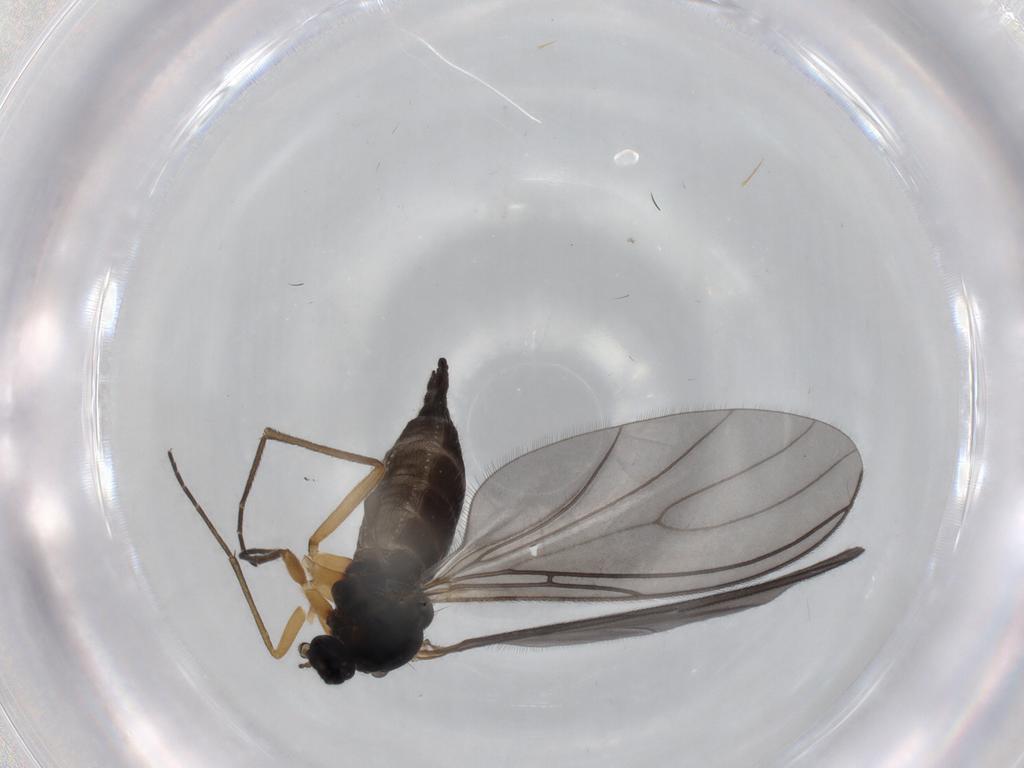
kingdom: Animalia
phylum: Arthropoda
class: Insecta
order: Diptera
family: Sciaridae
